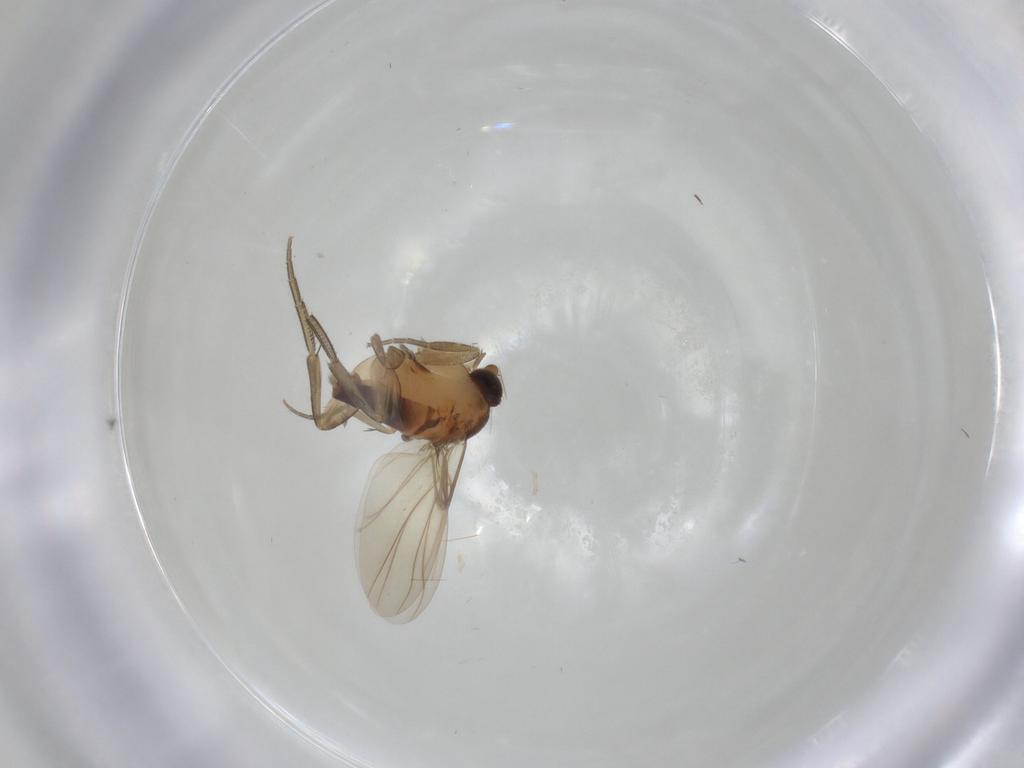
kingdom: Animalia
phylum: Arthropoda
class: Insecta
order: Diptera
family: Phoridae
